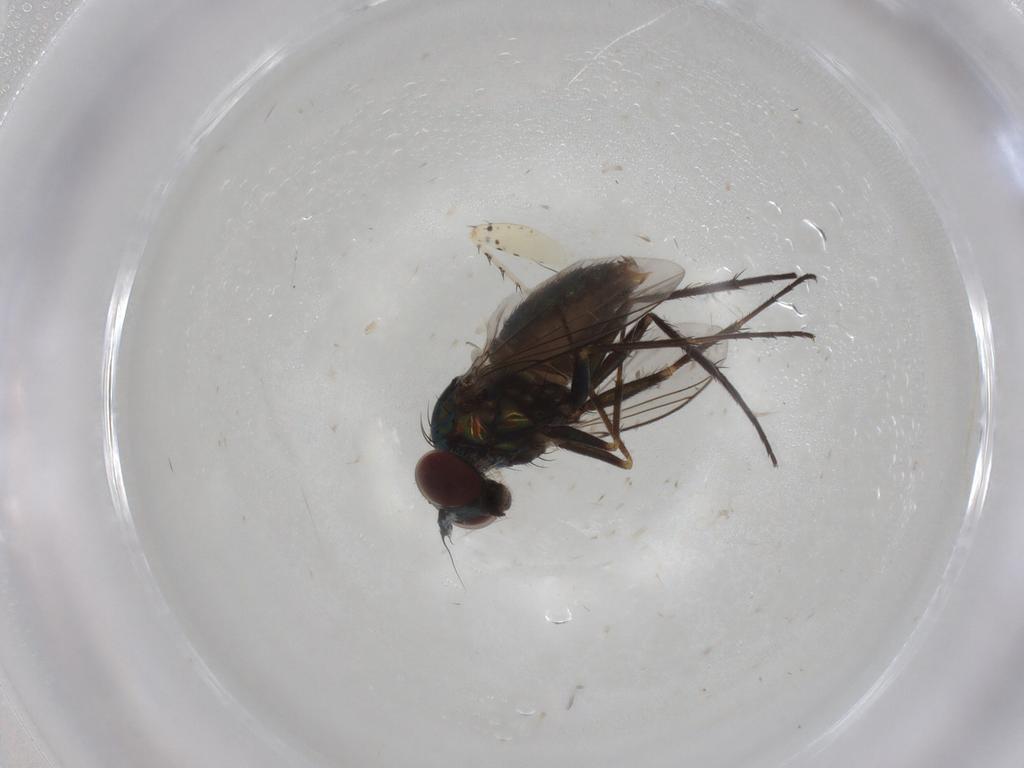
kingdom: Animalia
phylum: Arthropoda
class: Insecta
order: Diptera
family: Dolichopodidae
